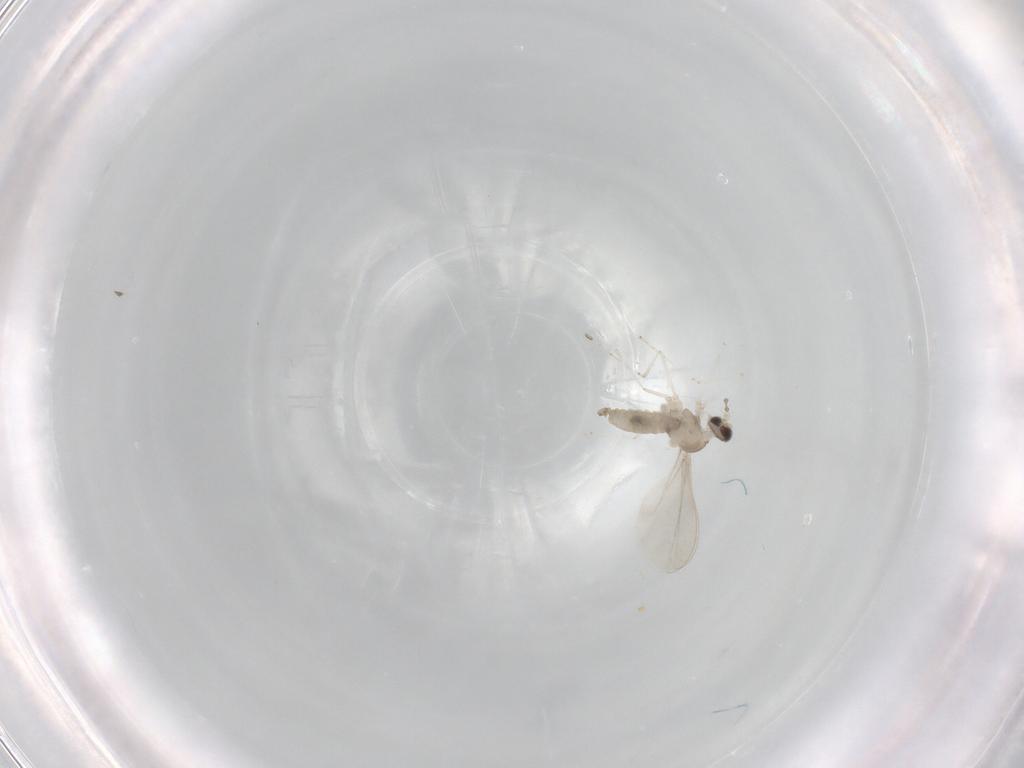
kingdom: Animalia
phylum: Arthropoda
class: Insecta
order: Diptera
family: Cecidomyiidae
